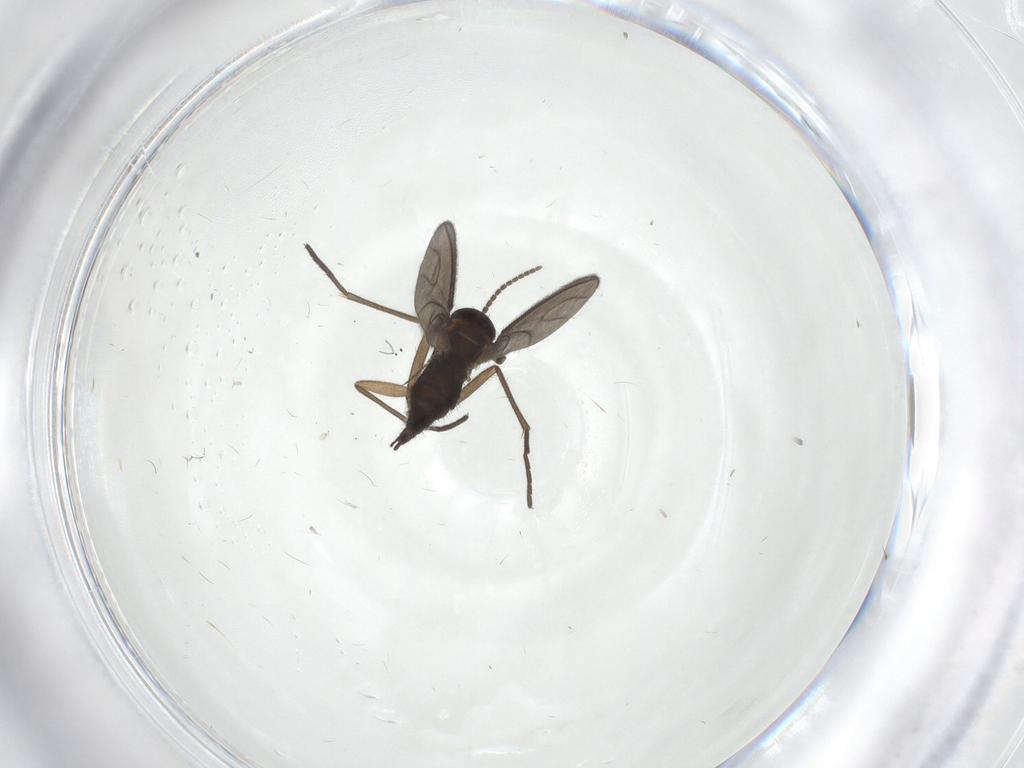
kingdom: Animalia
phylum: Arthropoda
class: Insecta
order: Diptera
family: Sciaridae
